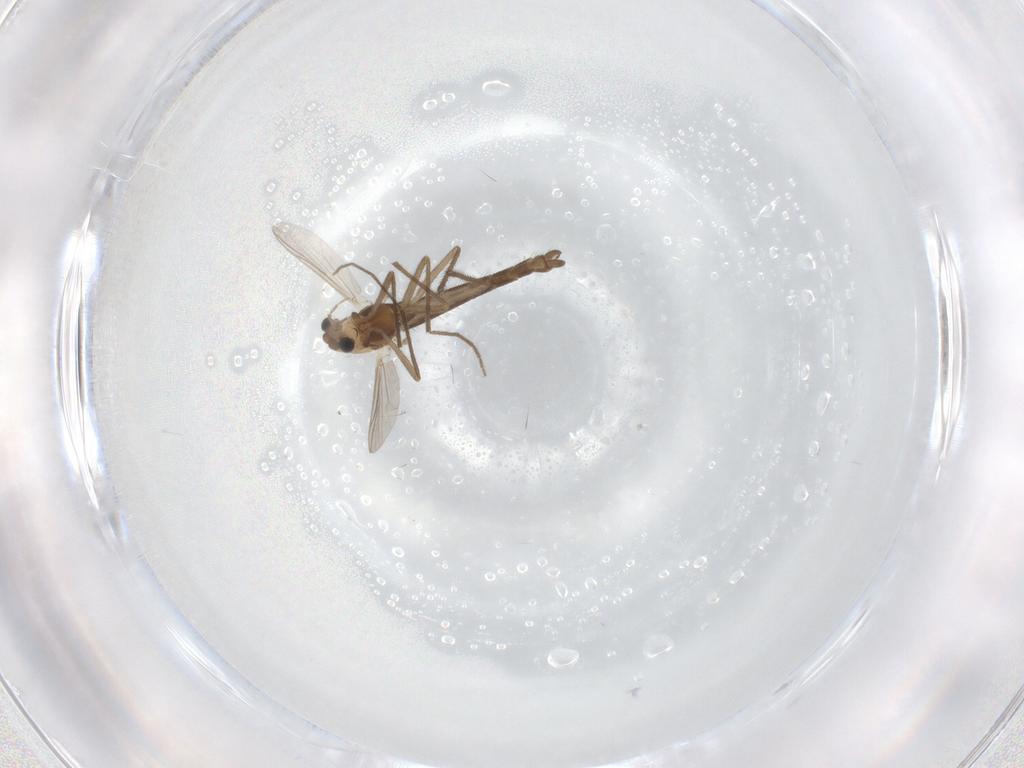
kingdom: Animalia
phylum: Arthropoda
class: Insecta
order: Diptera
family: Chironomidae
